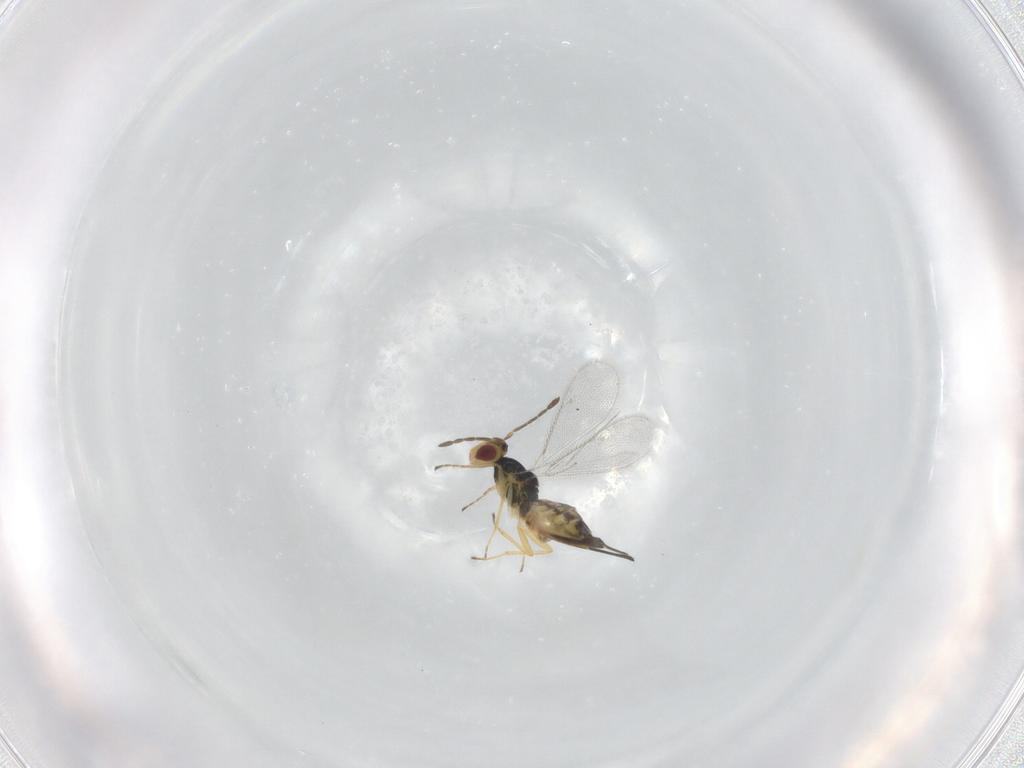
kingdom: Animalia
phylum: Arthropoda
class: Insecta
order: Hymenoptera
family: Eulophidae
